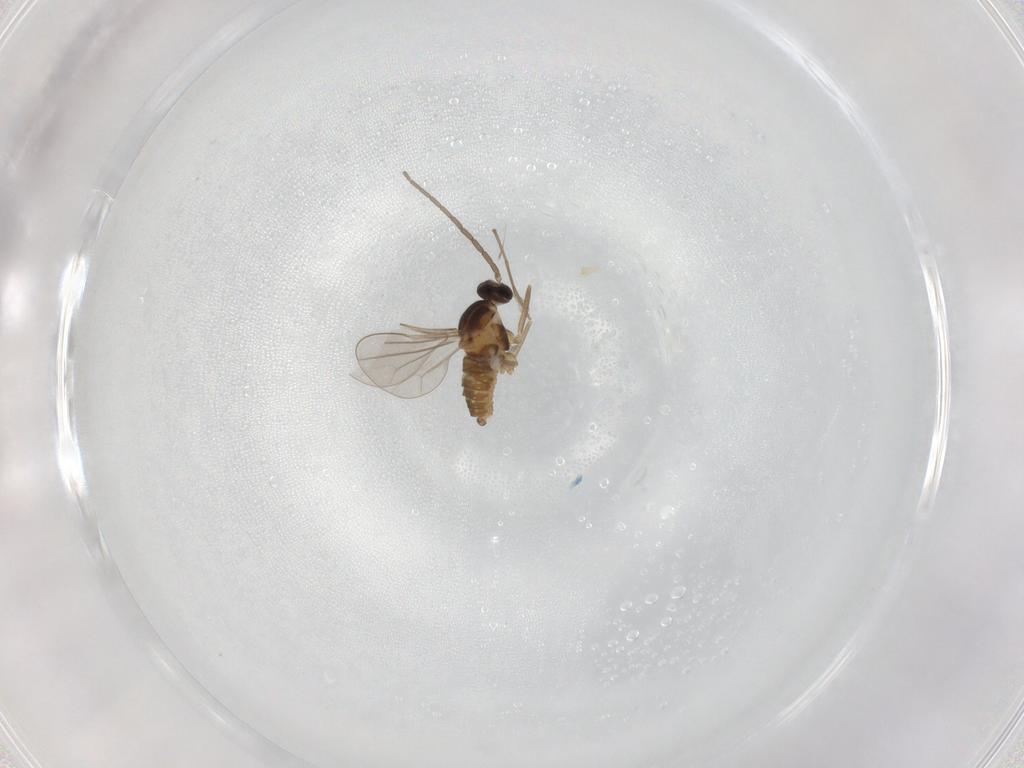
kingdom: Animalia
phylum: Arthropoda
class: Insecta
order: Diptera
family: Cecidomyiidae
